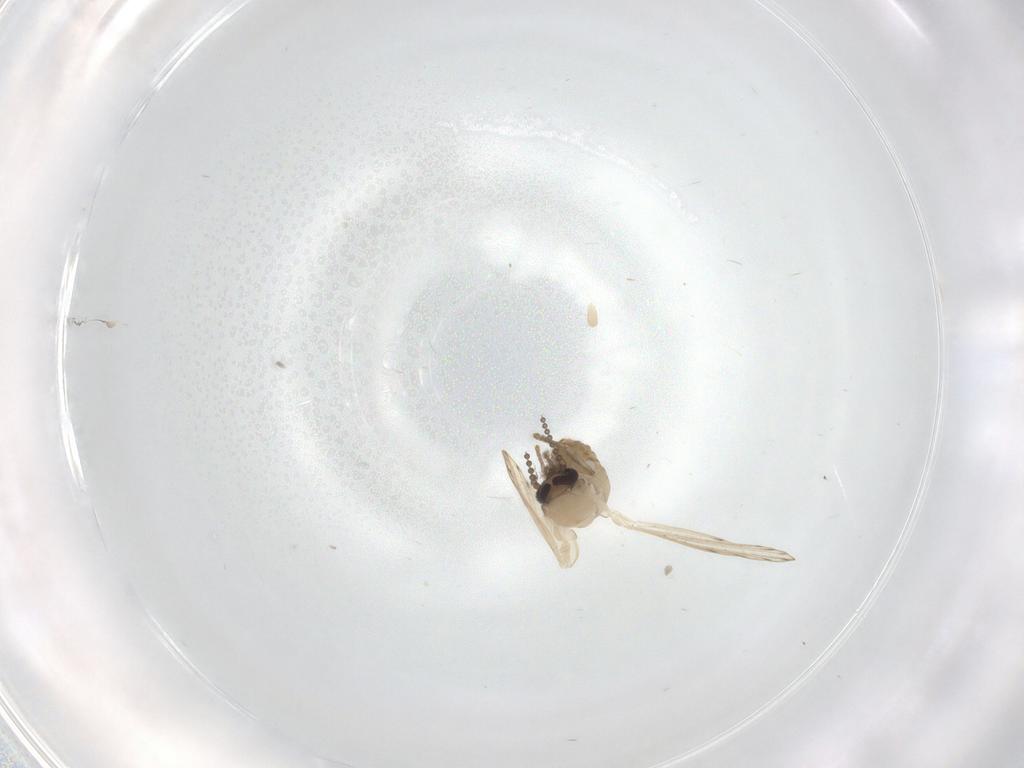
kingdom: Animalia
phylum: Arthropoda
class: Insecta
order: Diptera
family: Psychodidae
